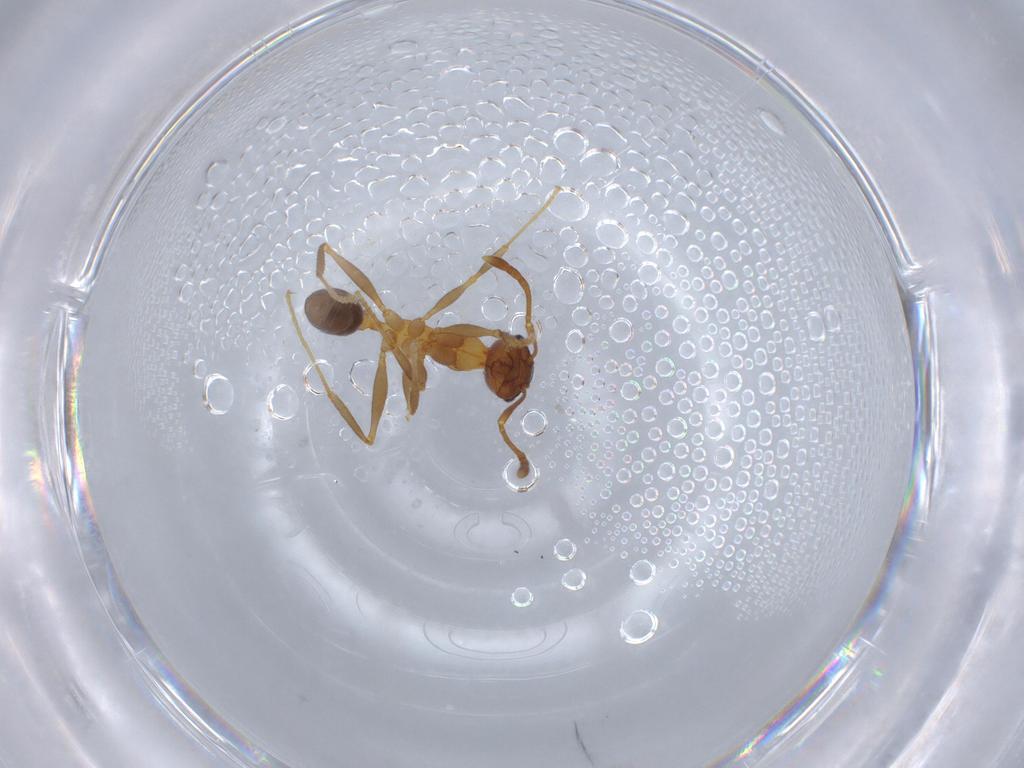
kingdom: Animalia
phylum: Arthropoda
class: Insecta
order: Hymenoptera
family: Formicidae
